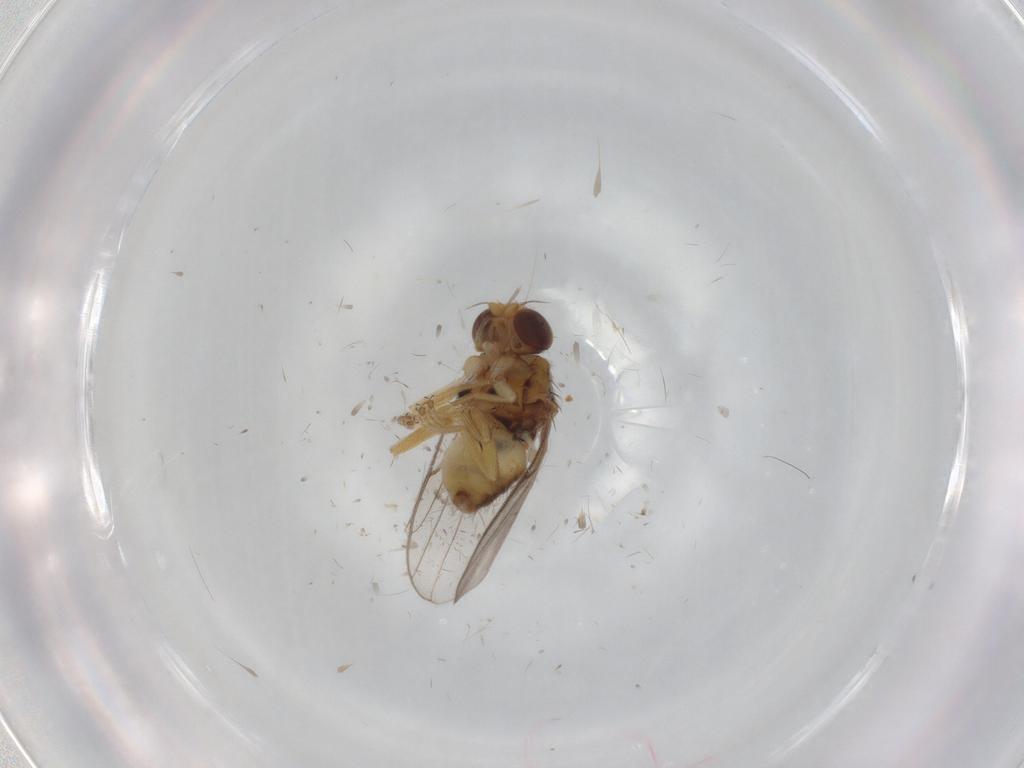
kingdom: Animalia
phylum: Arthropoda
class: Insecta
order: Diptera
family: Chloropidae
